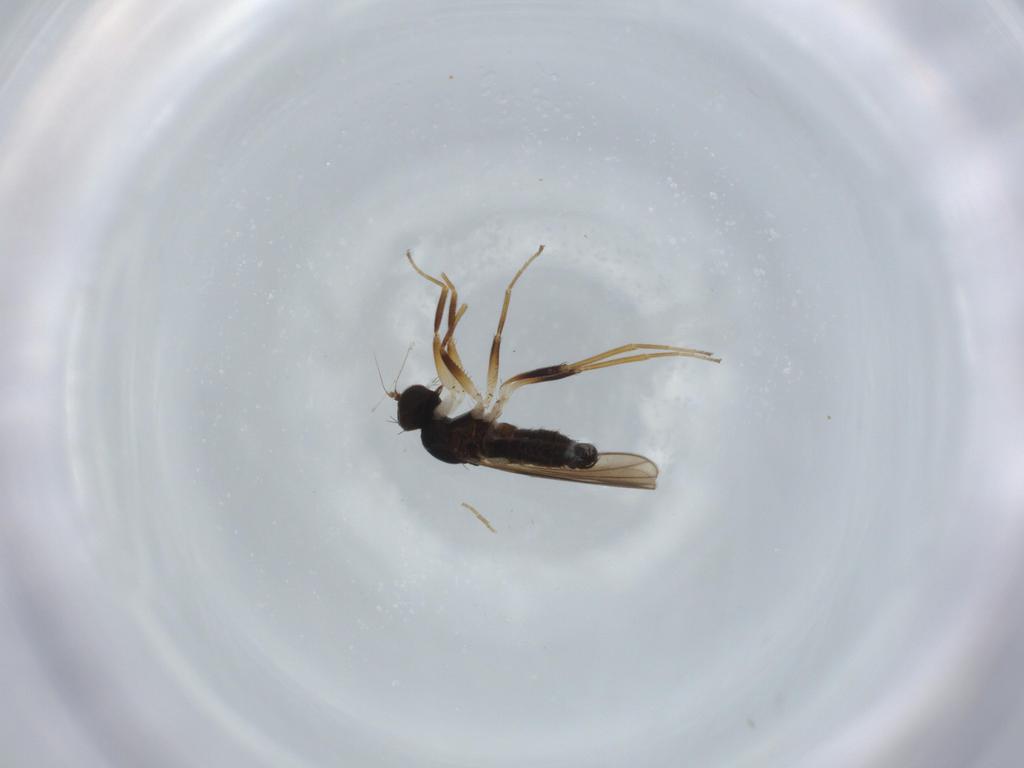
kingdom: Animalia
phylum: Arthropoda
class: Insecta
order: Diptera
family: Hybotidae
